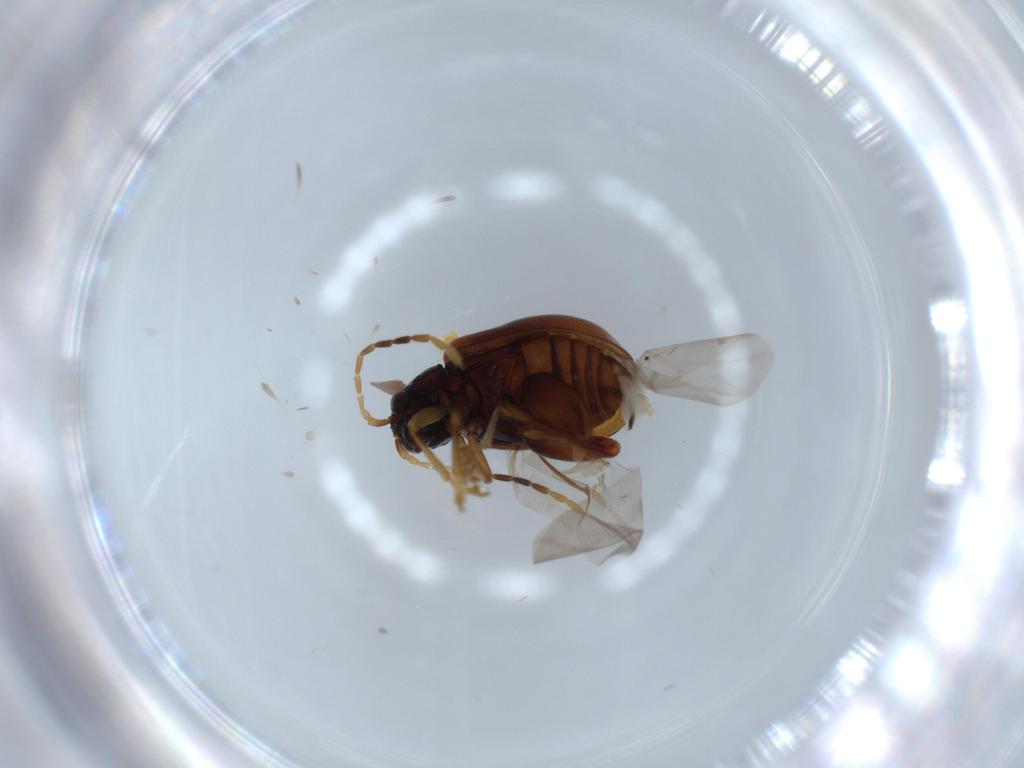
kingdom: Animalia
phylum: Arthropoda
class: Insecta
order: Coleoptera
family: Chrysomelidae
